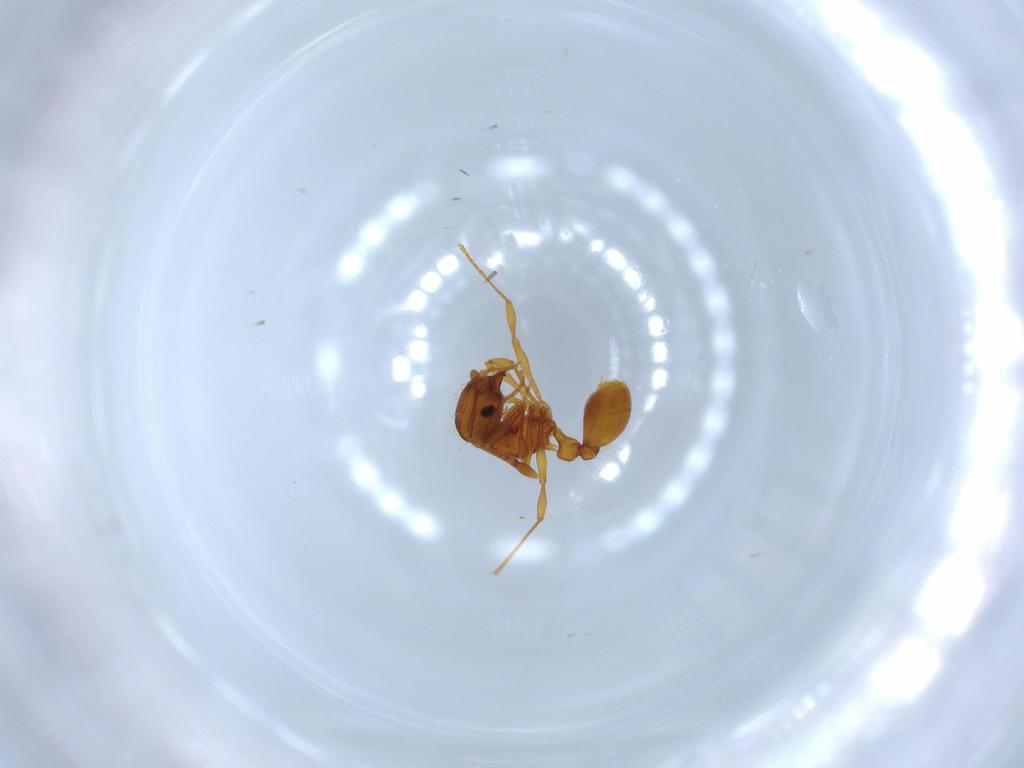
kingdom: Animalia
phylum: Arthropoda
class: Insecta
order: Hymenoptera
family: Formicidae
